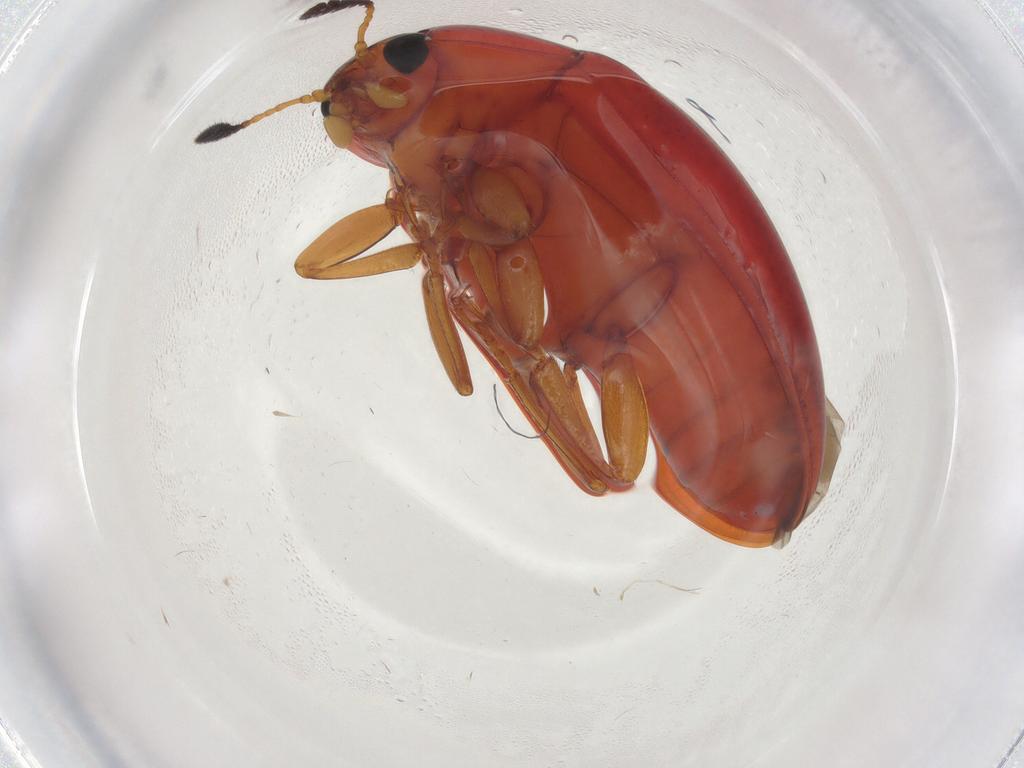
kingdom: Animalia
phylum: Arthropoda
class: Insecta
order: Coleoptera
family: Erotylidae
